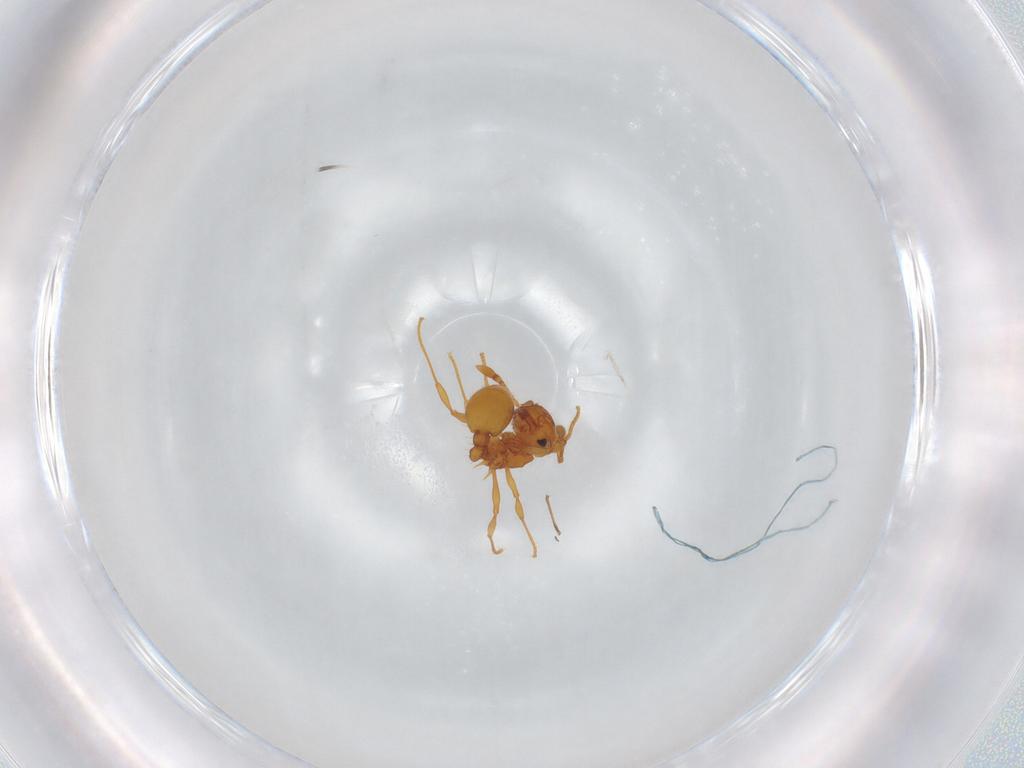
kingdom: Animalia
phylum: Arthropoda
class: Insecta
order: Hymenoptera
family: Formicidae
